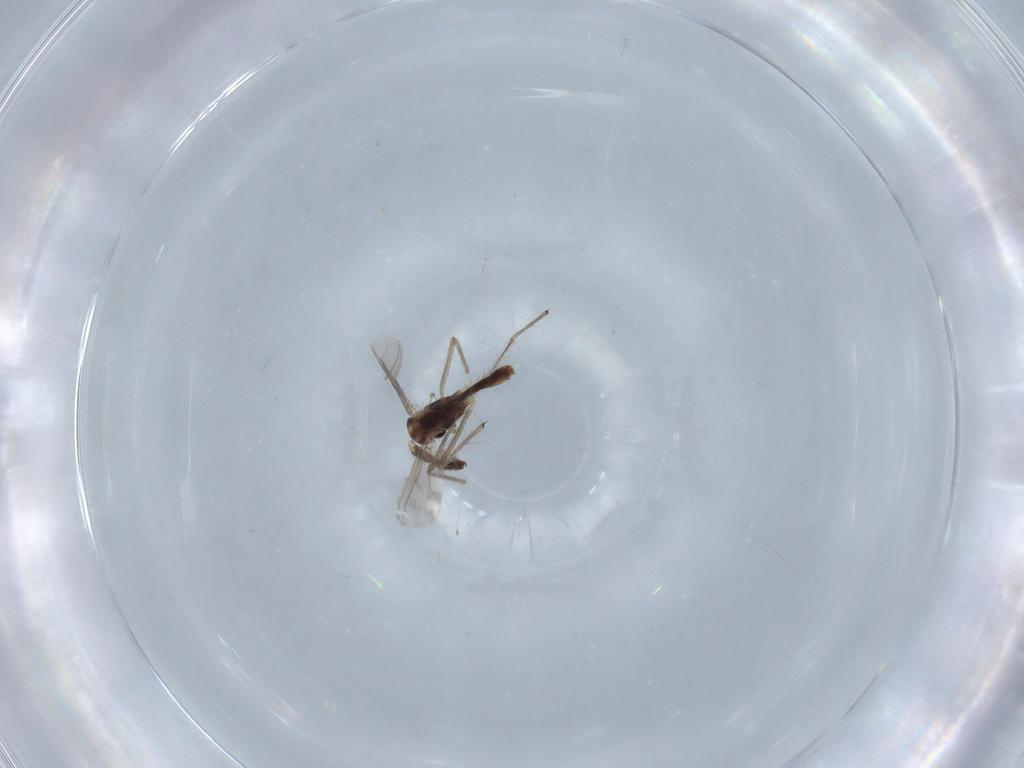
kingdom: Animalia
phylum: Arthropoda
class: Insecta
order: Diptera
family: Chironomidae
